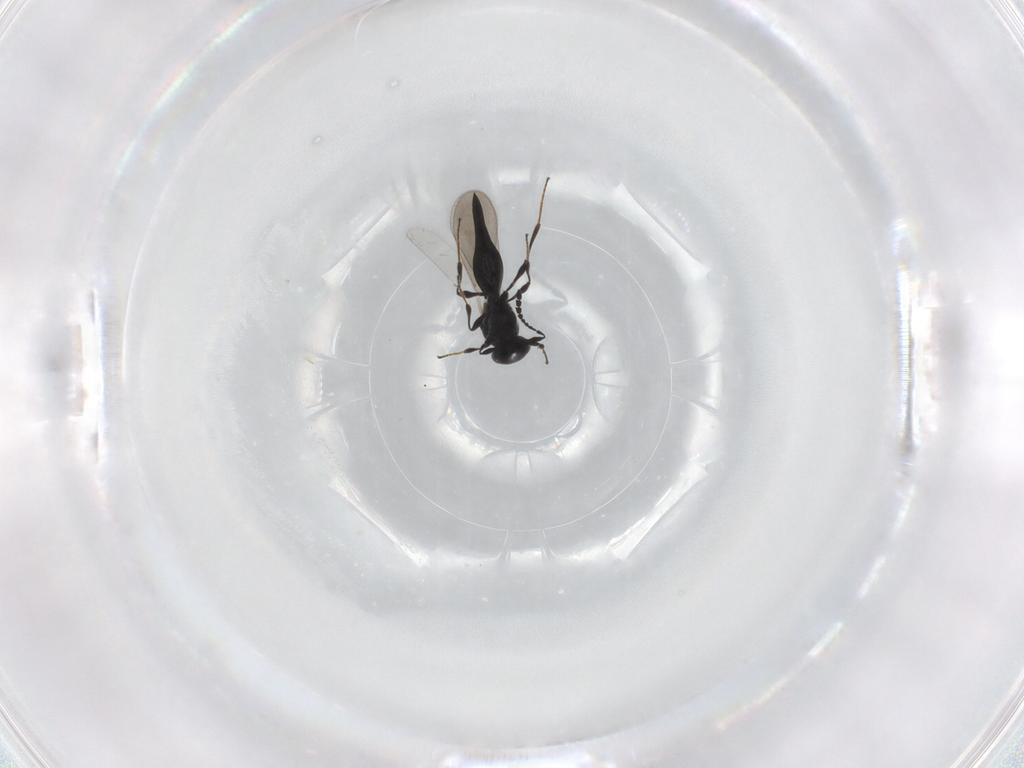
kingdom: Animalia
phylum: Arthropoda
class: Insecta
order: Hymenoptera
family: Platygastridae
